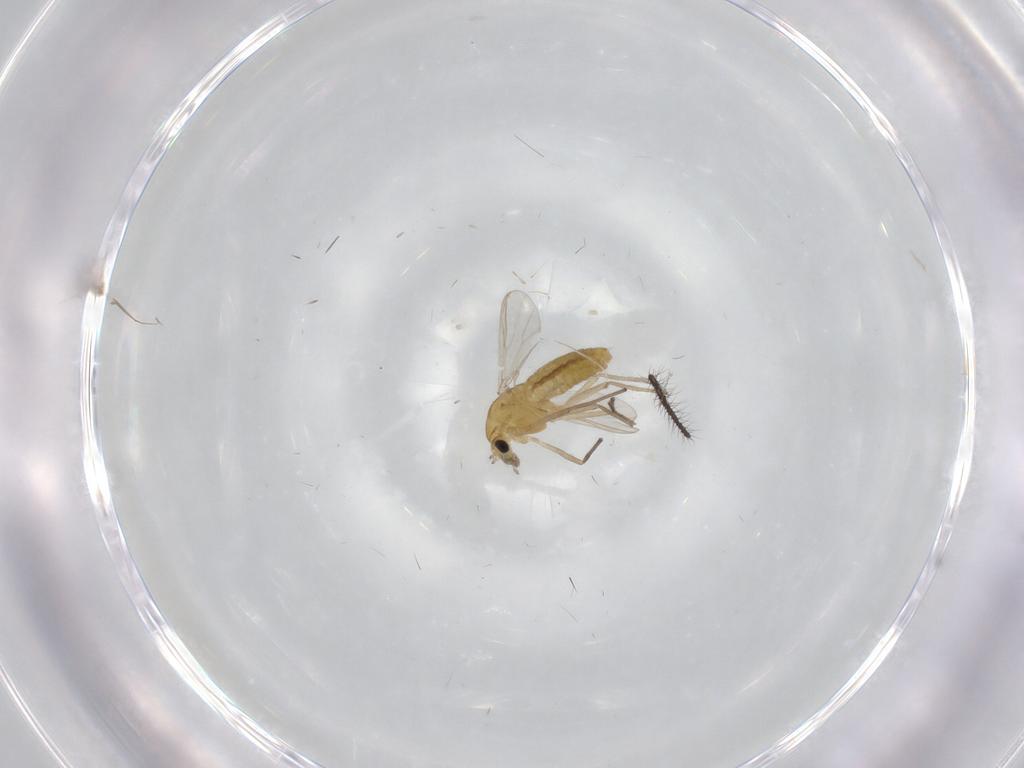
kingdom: Animalia
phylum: Arthropoda
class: Insecta
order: Diptera
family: Chironomidae
